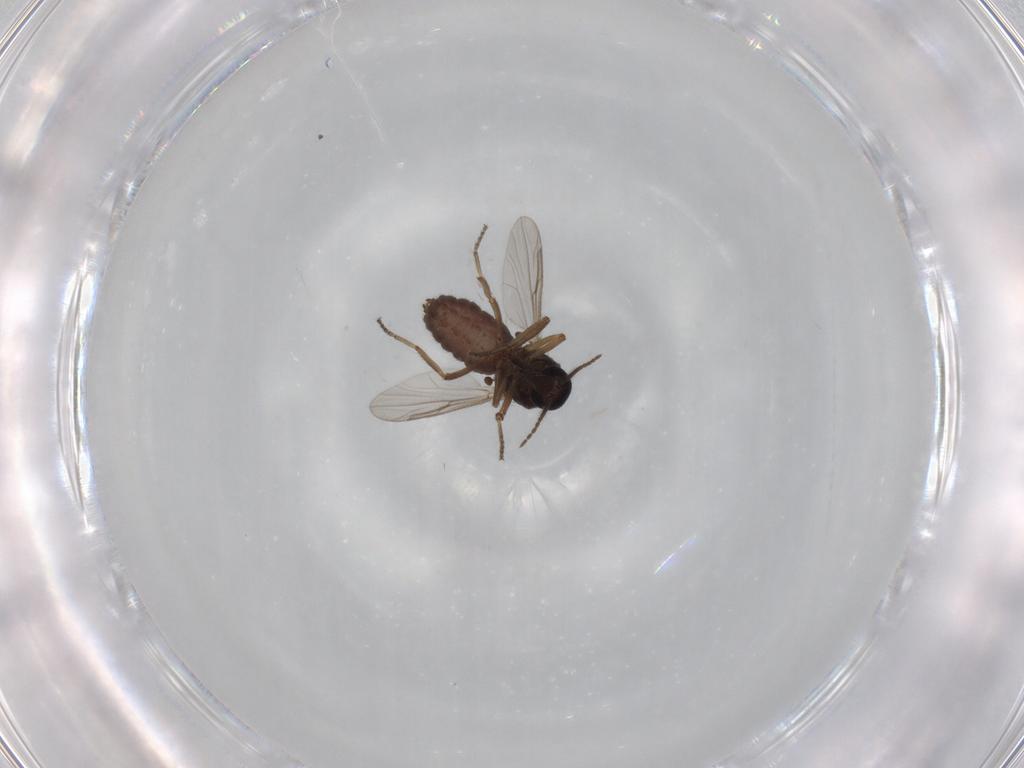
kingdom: Animalia
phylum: Arthropoda
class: Insecta
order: Diptera
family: Ceratopogonidae
